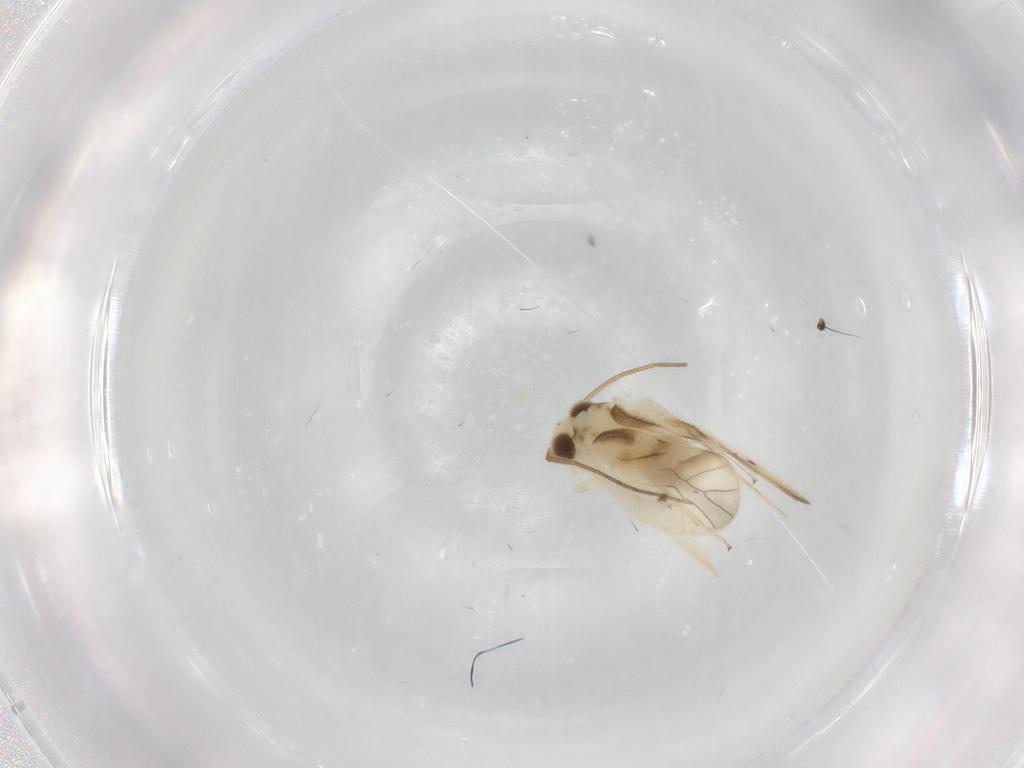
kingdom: Animalia
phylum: Arthropoda
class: Insecta
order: Psocodea
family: Caeciliusidae
